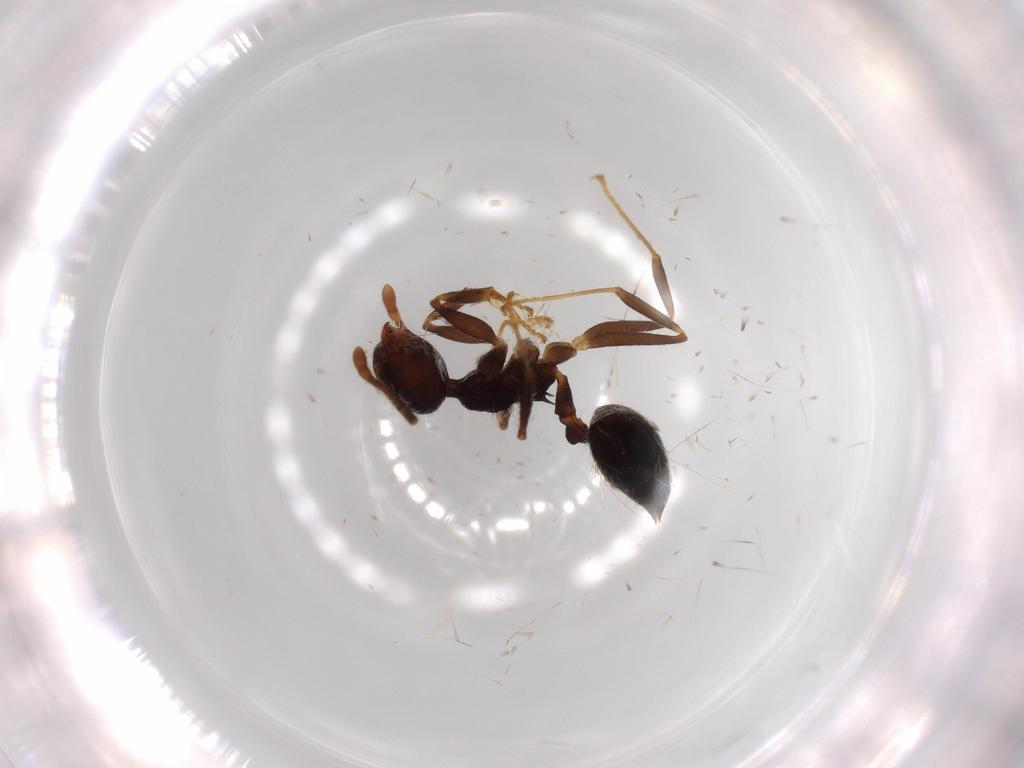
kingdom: Animalia
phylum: Arthropoda
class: Insecta
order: Hymenoptera
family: Formicidae
